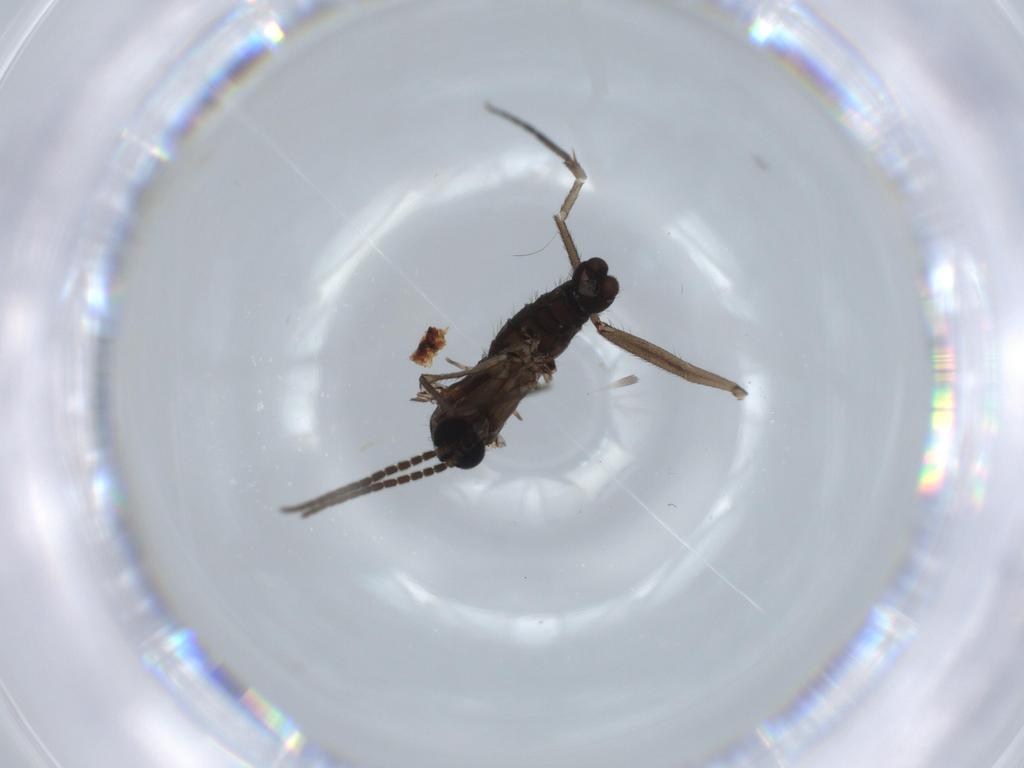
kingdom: Animalia
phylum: Arthropoda
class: Insecta
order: Diptera
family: Sciaridae
